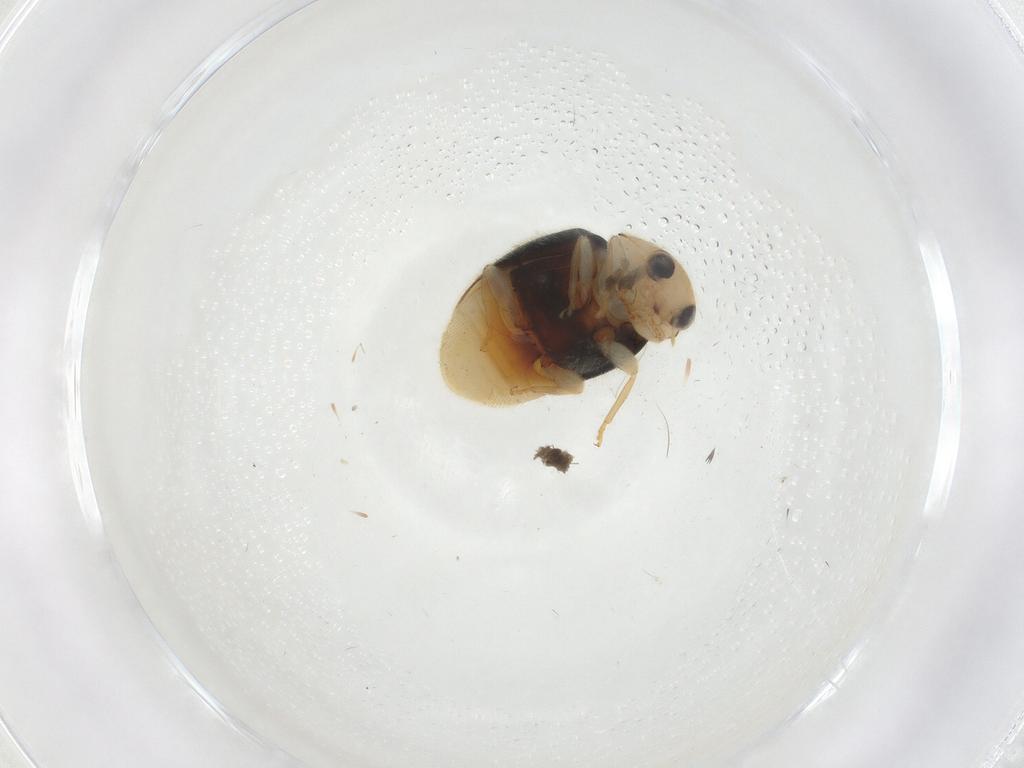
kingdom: Animalia
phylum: Arthropoda
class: Insecta
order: Coleoptera
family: Coccinellidae
